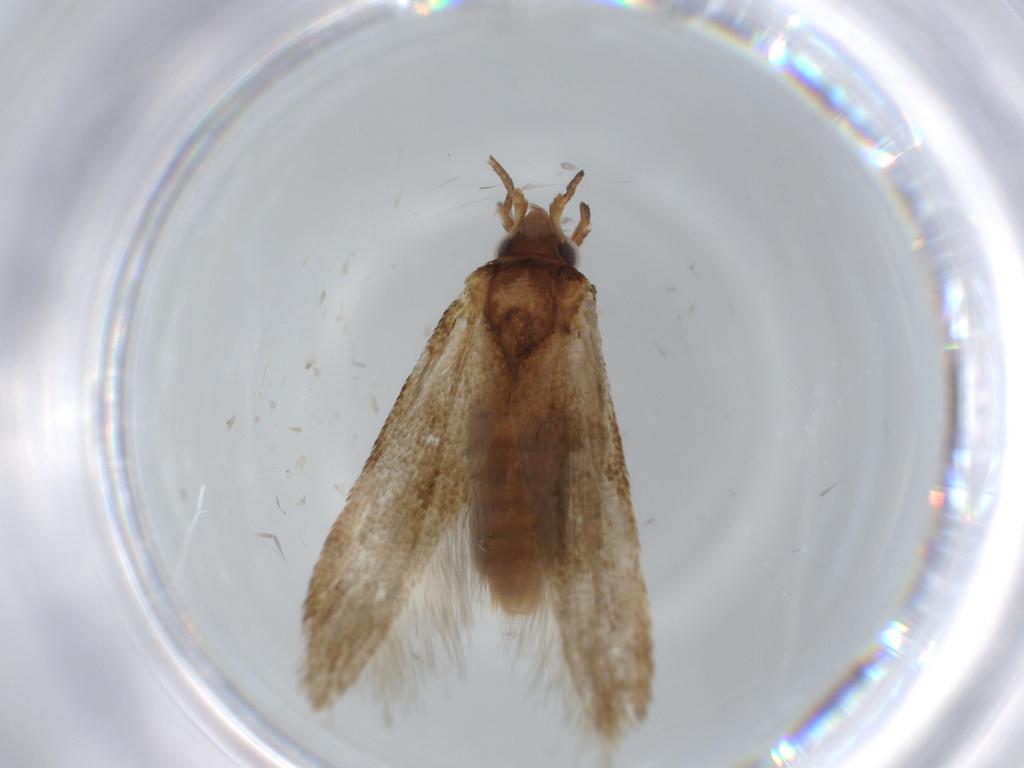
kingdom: Animalia
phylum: Arthropoda
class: Insecta
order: Lepidoptera
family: Coleophoridae
